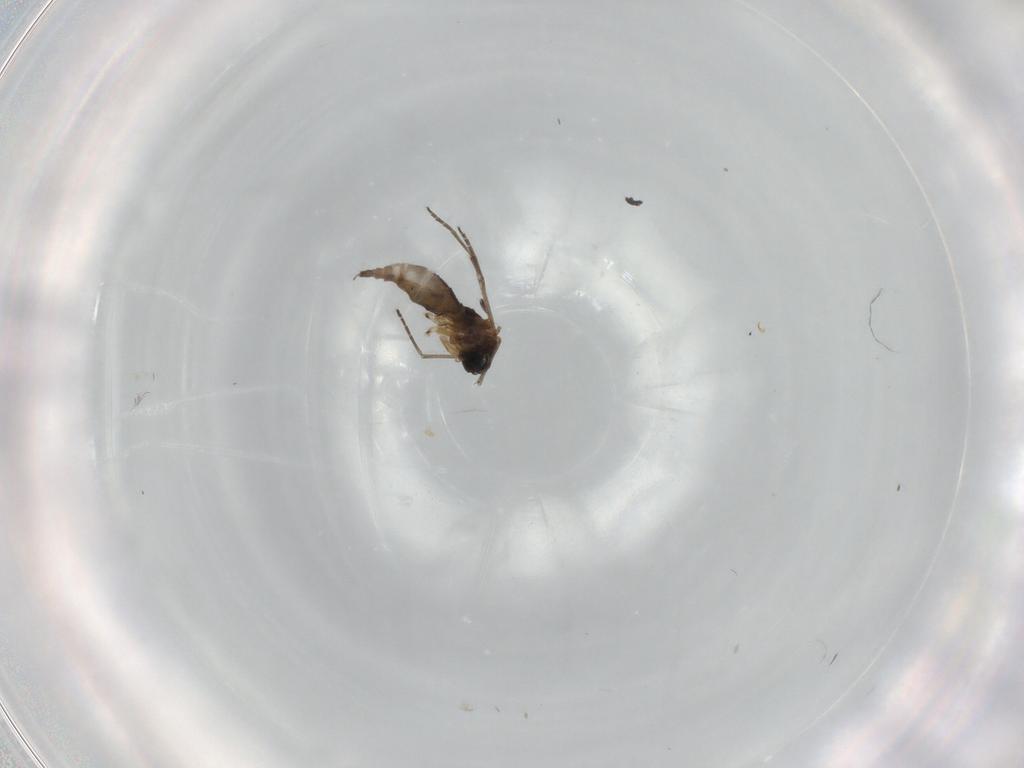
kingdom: Animalia
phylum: Arthropoda
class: Insecta
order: Diptera
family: Sciaridae
